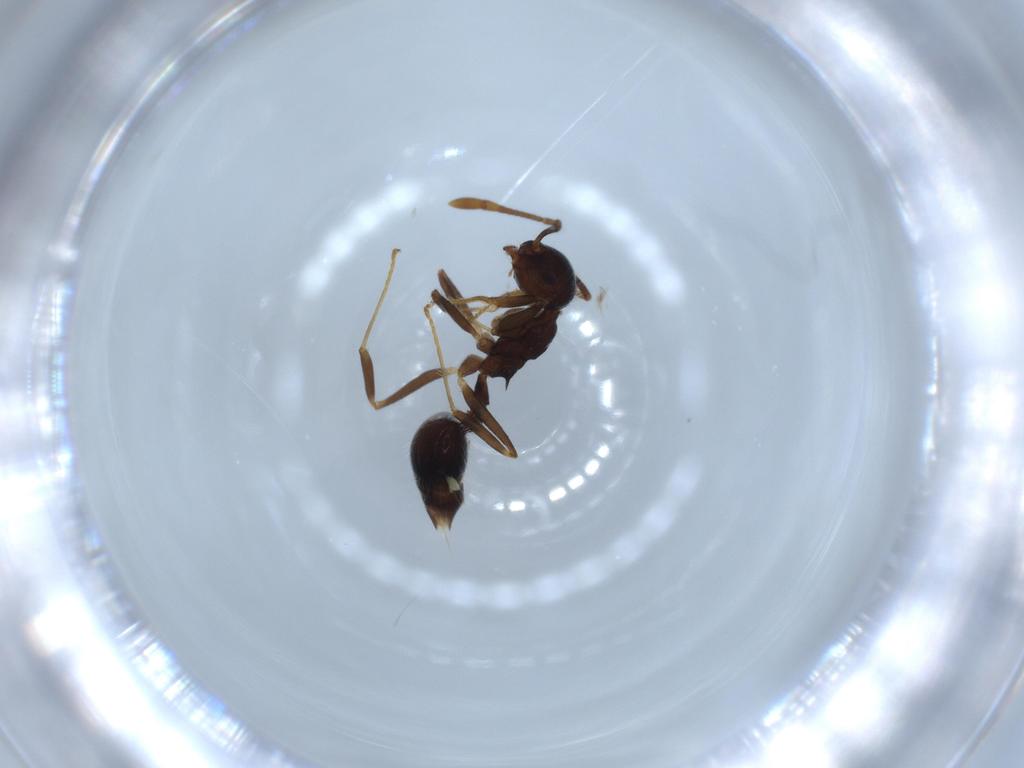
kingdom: Animalia
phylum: Arthropoda
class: Insecta
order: Hymenoptera
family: Formicidae
